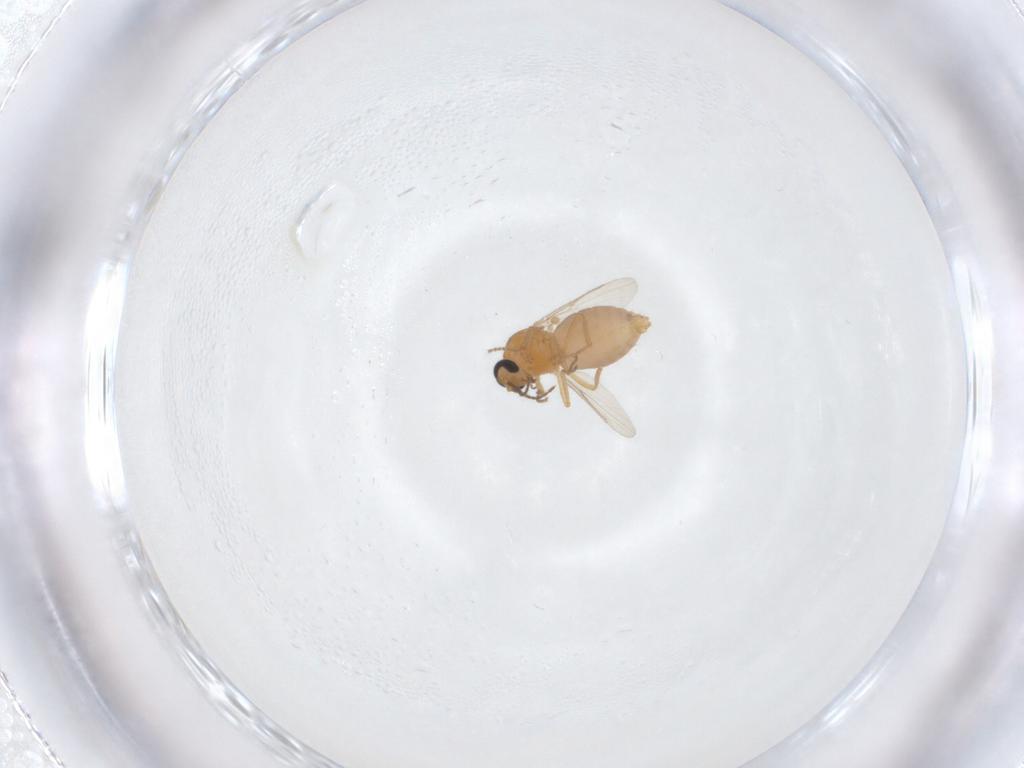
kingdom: Animalia
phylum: Arthropoda
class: Insecta
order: Diptera
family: Ceratopogonidae
